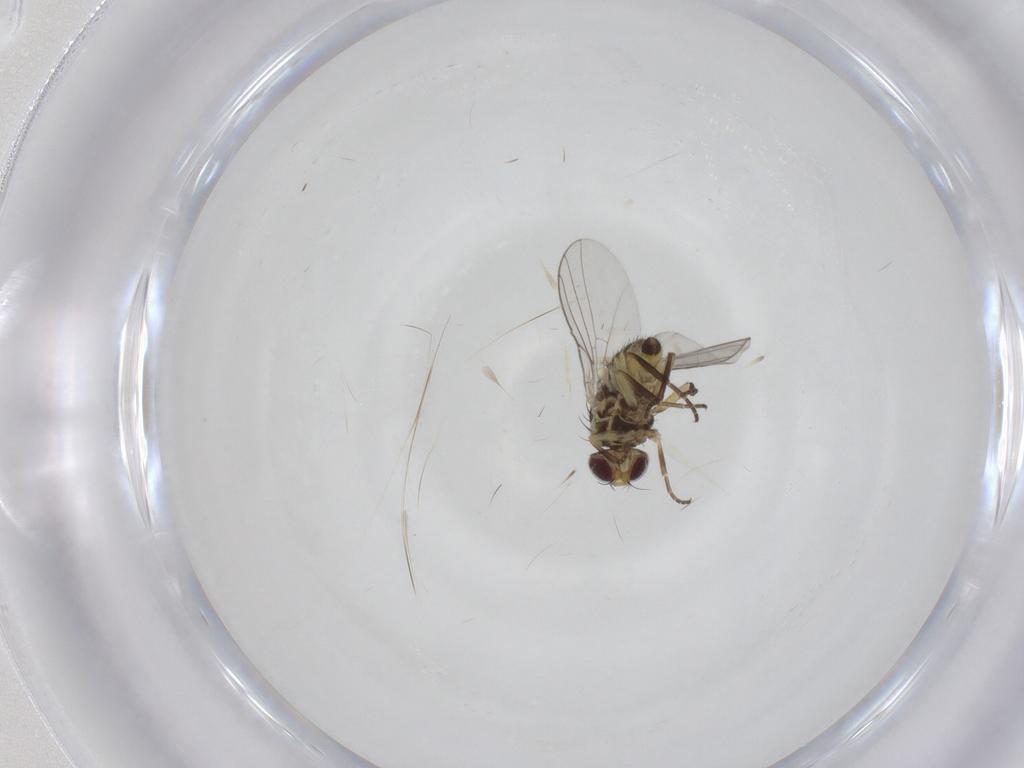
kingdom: Animalia
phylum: Arthropoda
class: Insecta
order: Diptera
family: Agromyzidae
